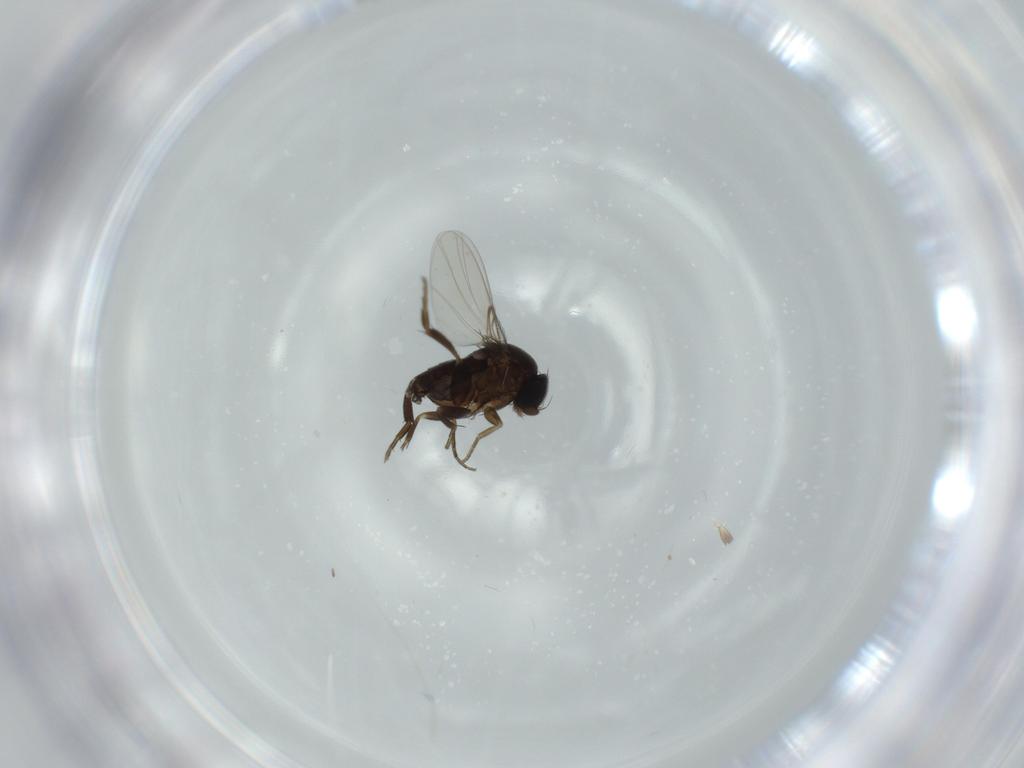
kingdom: Animalia
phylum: Arthropoda
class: Insecta
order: Diptera
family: Phoridae
